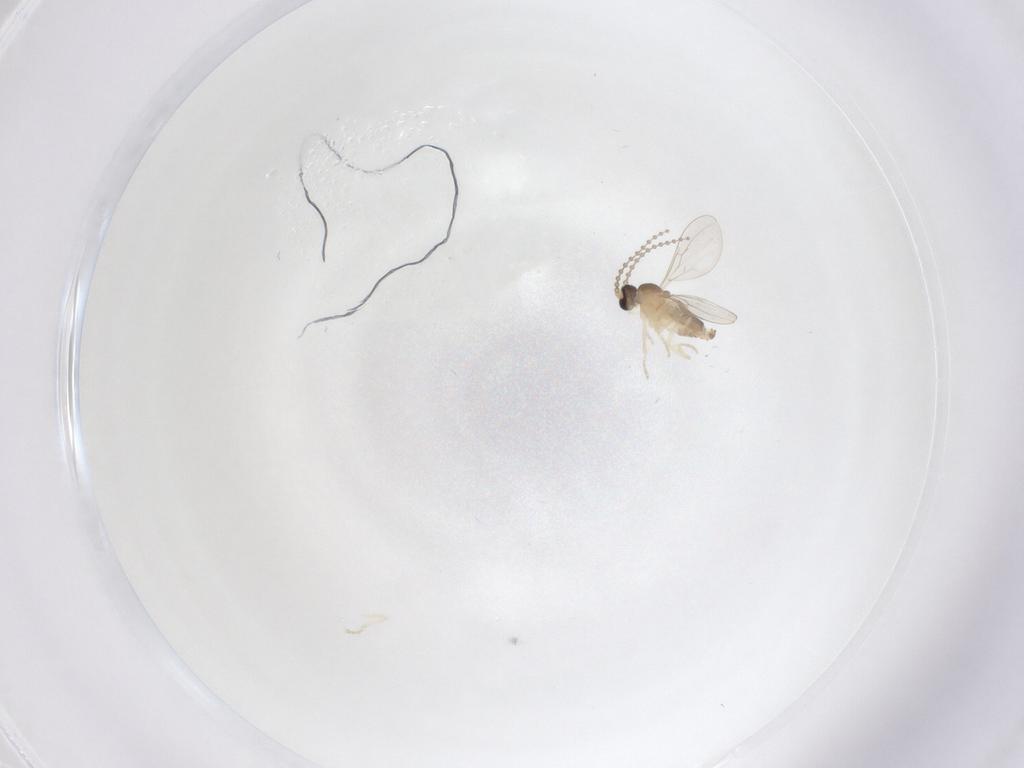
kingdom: Animalia
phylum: Arthropoda
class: Insecta
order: Diptera
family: Cecidomyiidae
